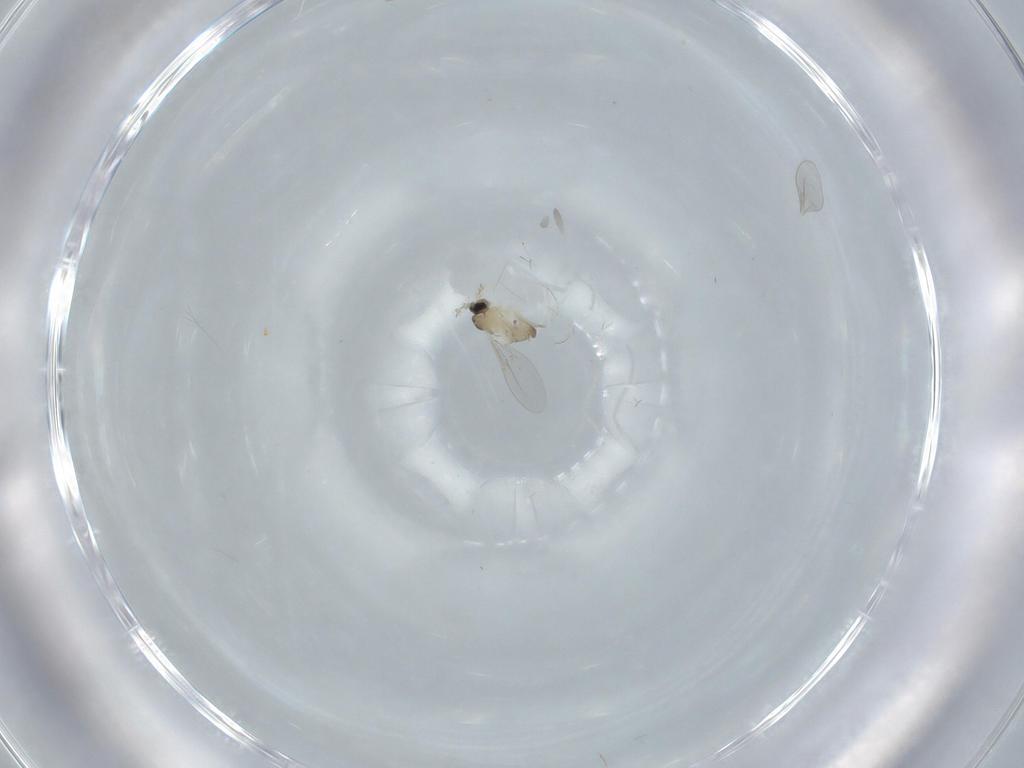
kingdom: Animalia
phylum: Arthropoda
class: Insecta
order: Diptera
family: Cecidomyiidae
